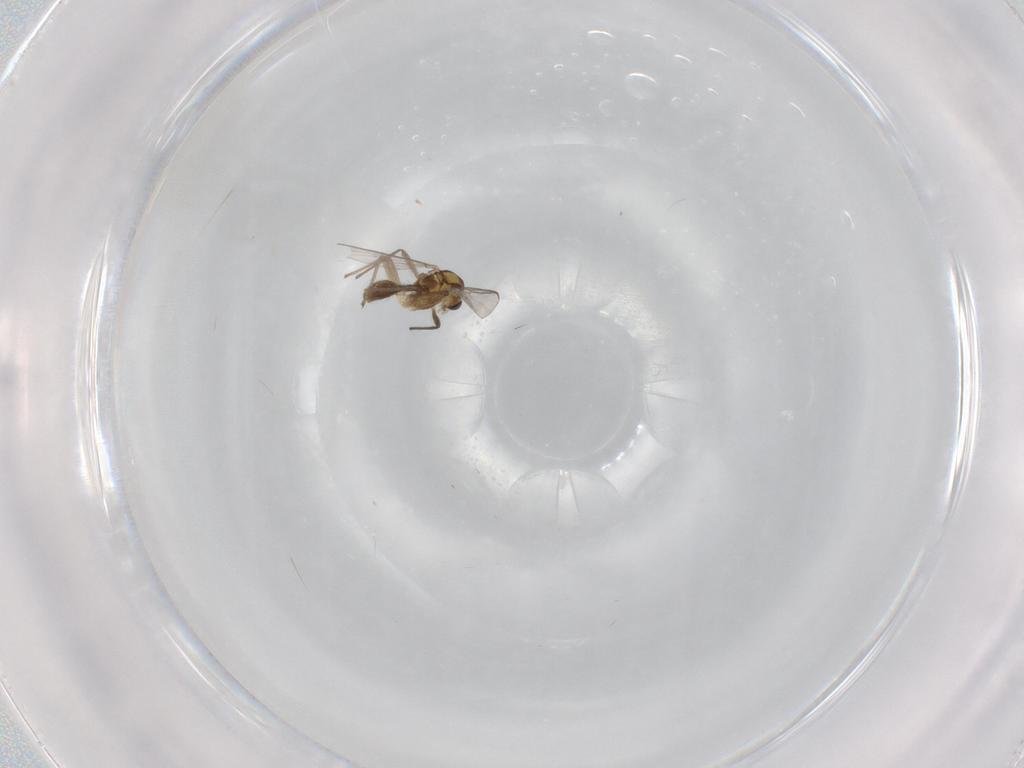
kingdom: Animalia
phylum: Arthropoda
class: Insecta
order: Diptera
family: Chironomidae
